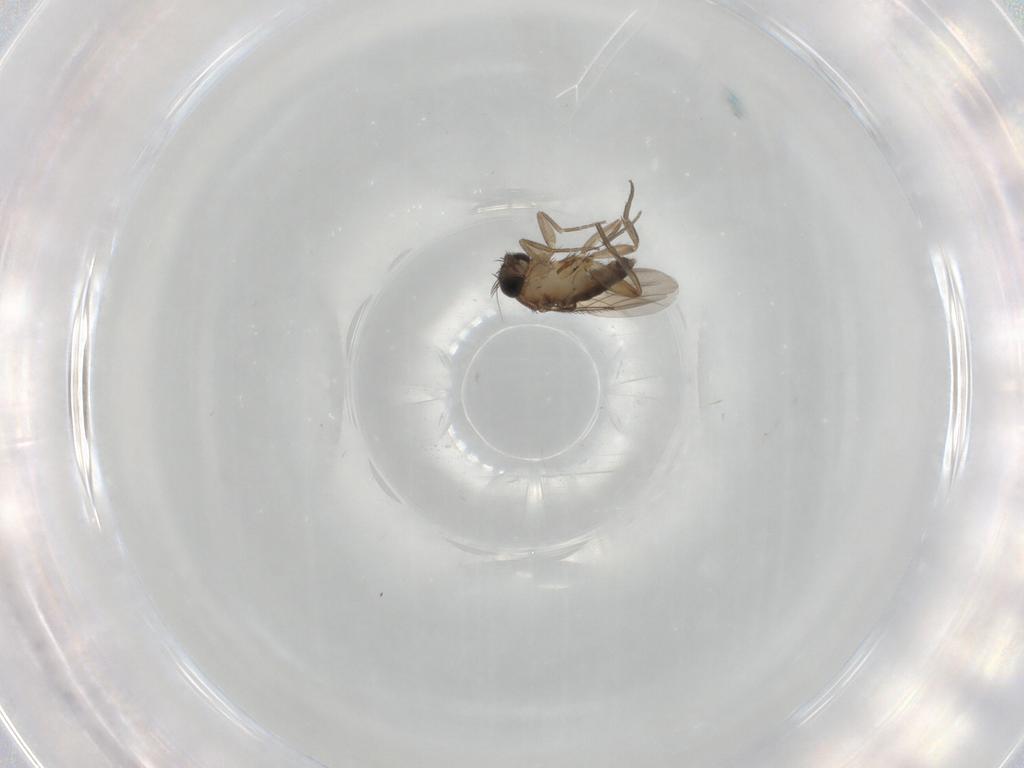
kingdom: Animalia
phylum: Arthropoda
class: Insecta
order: Diptera
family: Phoridae
